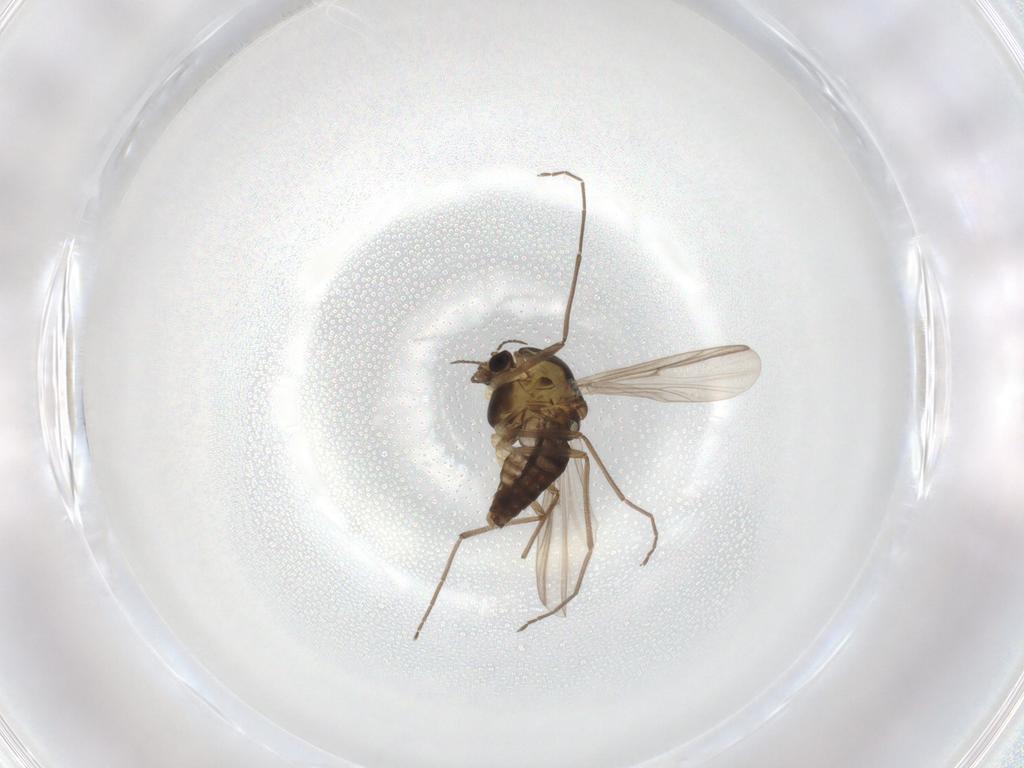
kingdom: Animalia
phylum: Arthropoda
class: Insecta
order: Diptera
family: Chironomidae
